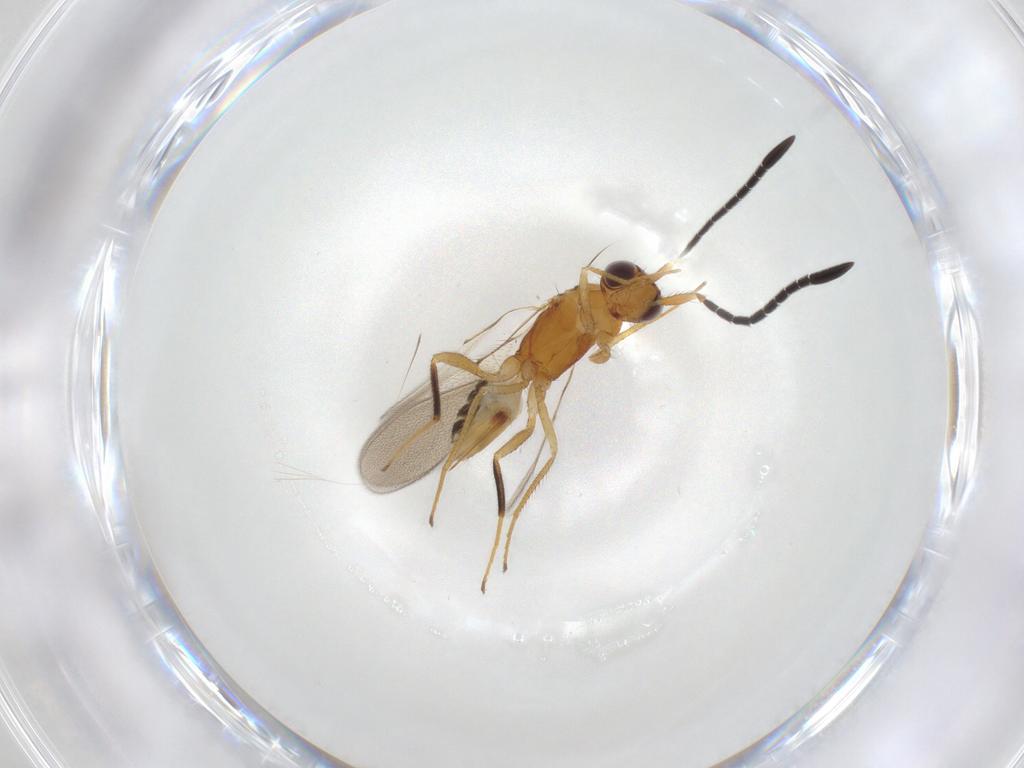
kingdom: Animalia
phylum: Arthropoda
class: Insecta
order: Hymenoptera
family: Mymaridae
